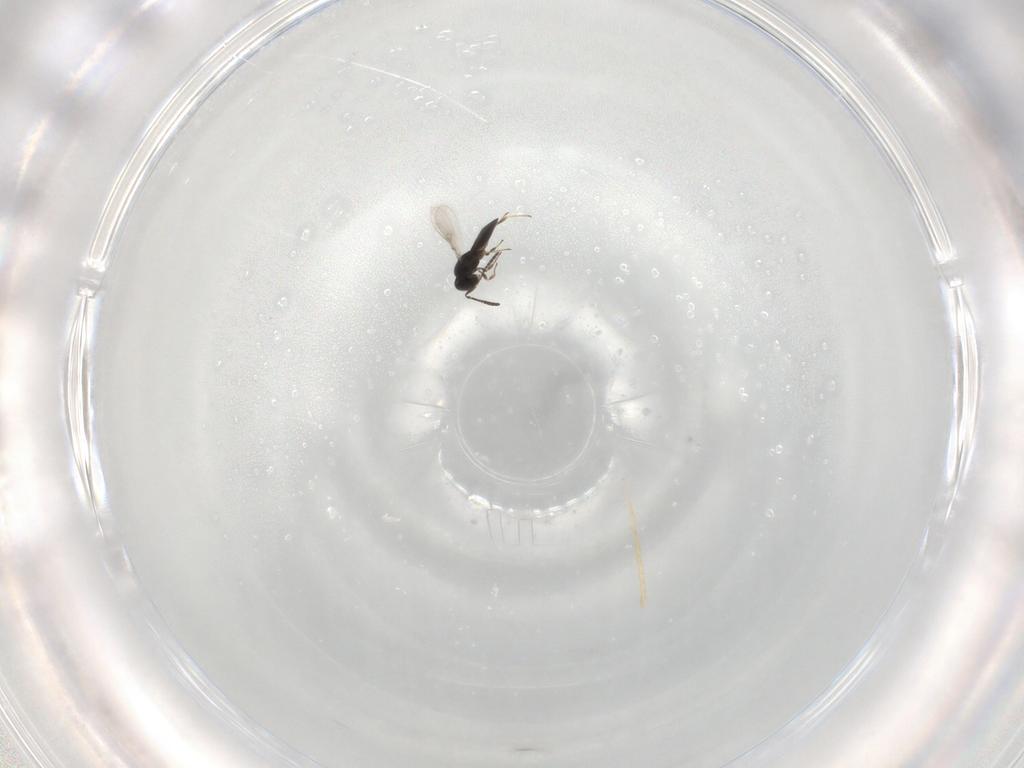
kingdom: Animalia
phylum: Arthropoda
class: Insecta
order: Hymenoptera
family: Scelionidae
